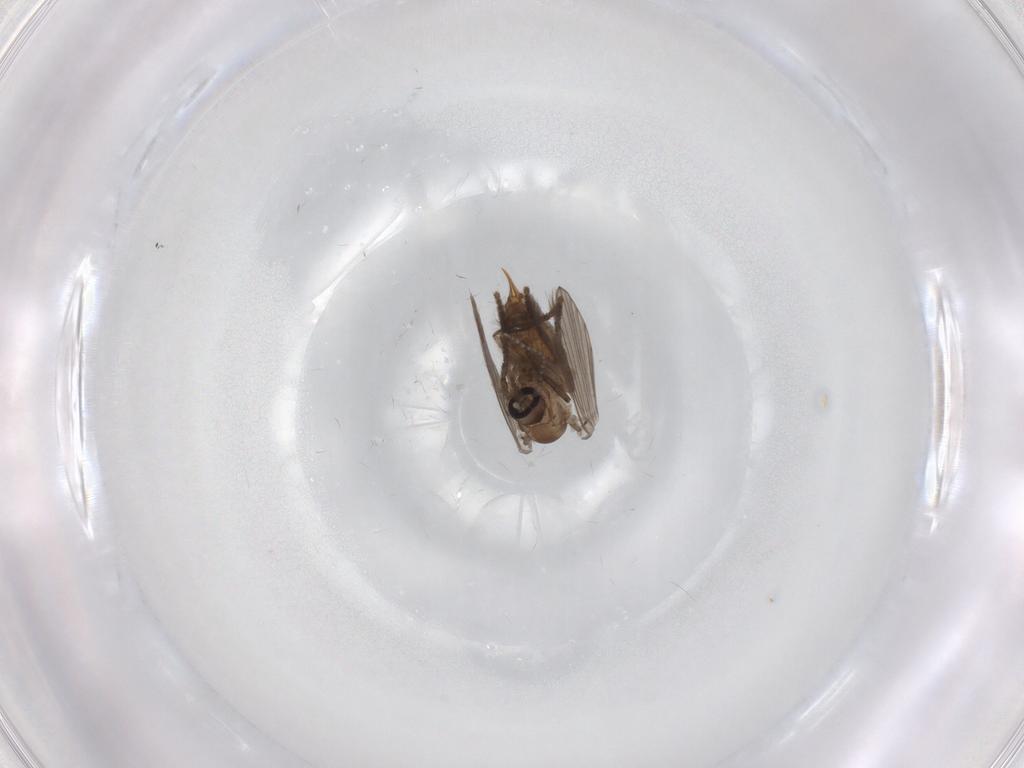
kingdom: Animalia
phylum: Arthropoda
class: Insecta
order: Diptera
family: Psychodidae
